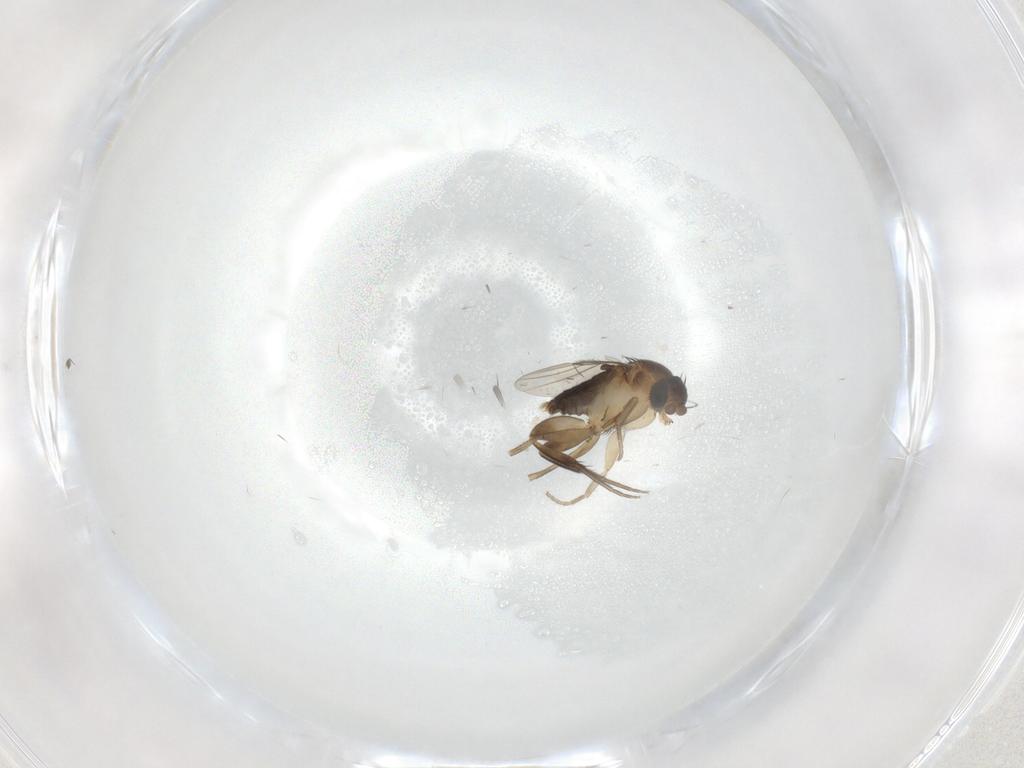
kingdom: Animalia
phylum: Arthropoda
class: Insecta
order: Diptera
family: Phoridae
